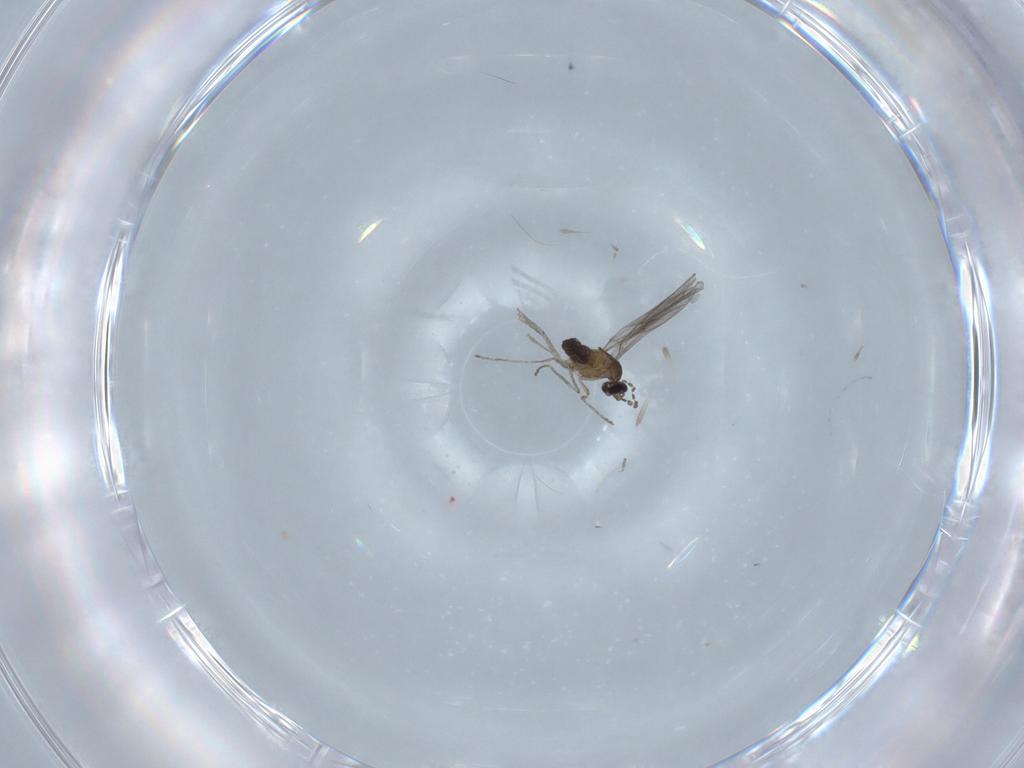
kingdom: Animalia
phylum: Arthropoda
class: Insecta
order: Diptera
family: Cecidomyiidae
